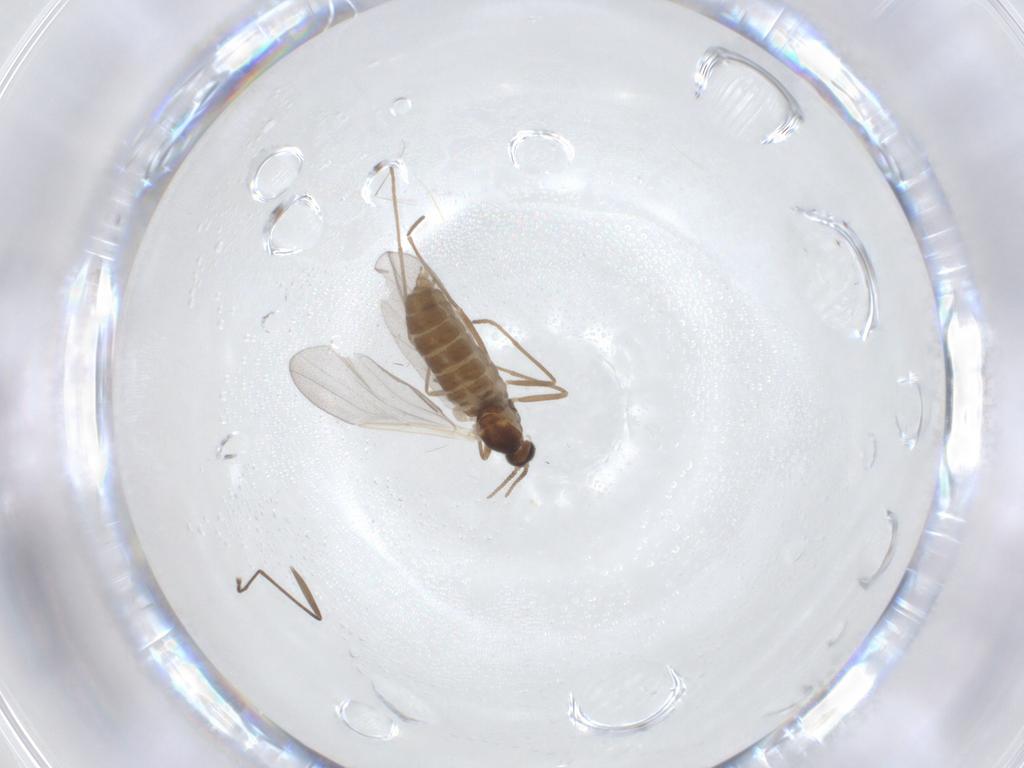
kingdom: Animalia
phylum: Arthropoda
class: Insecta
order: Diptera
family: Cecidomyiidae
